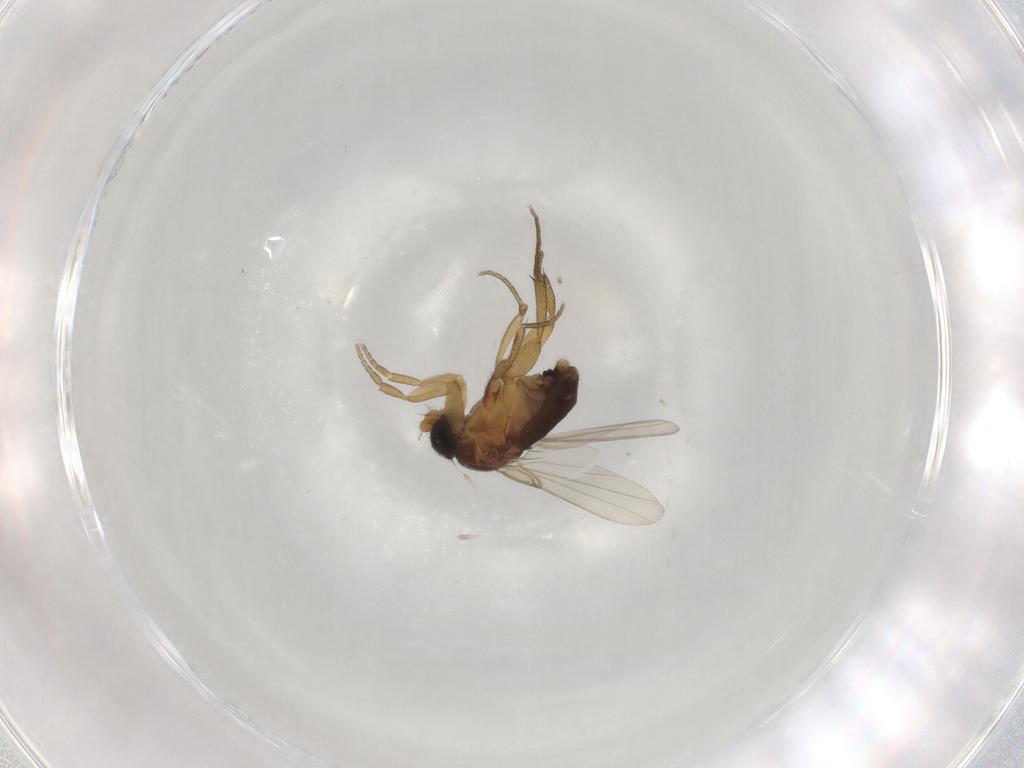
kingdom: Animalia
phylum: Arthropoda
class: Insecta
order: Diptera
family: Phoridae
